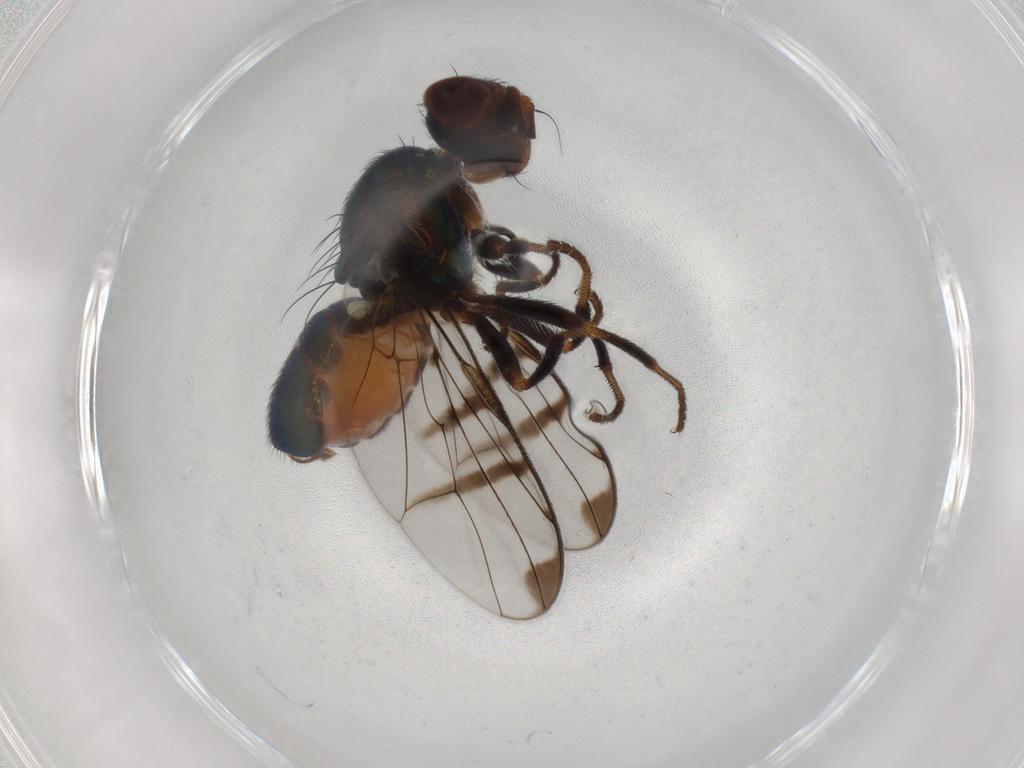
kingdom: Animalia
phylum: Arthropoda
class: Insecta
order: Diptera
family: Platystomatidae
